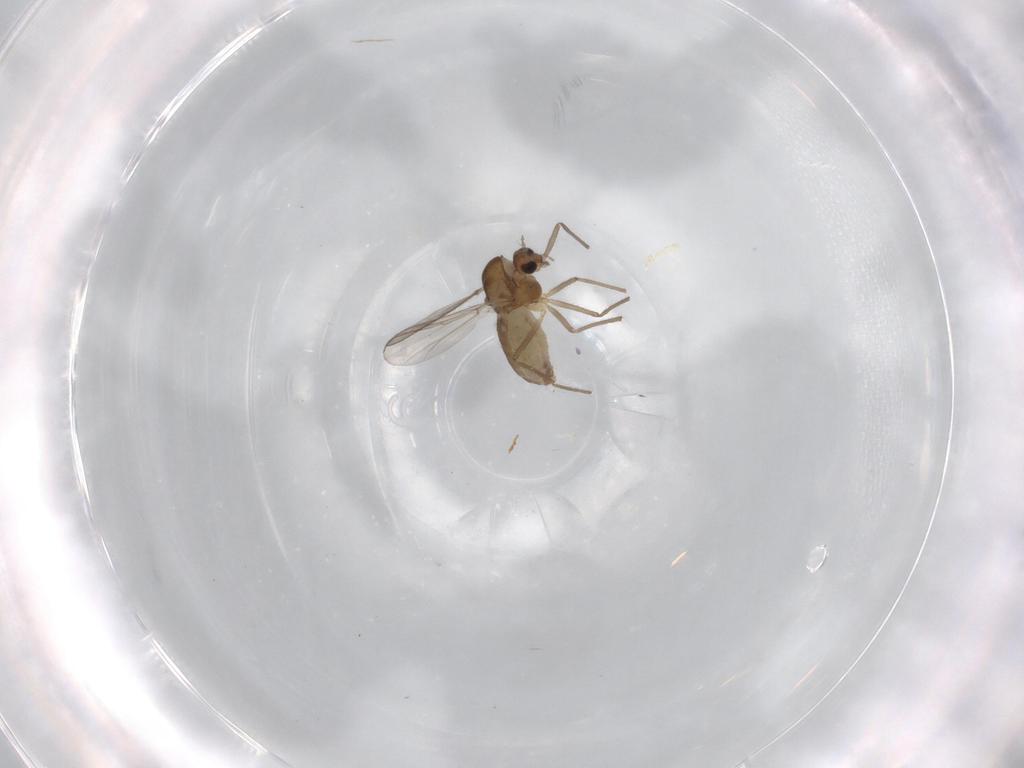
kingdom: Animalia
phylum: Arthropoda
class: Insecta
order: Diptera
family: Chironomidae
